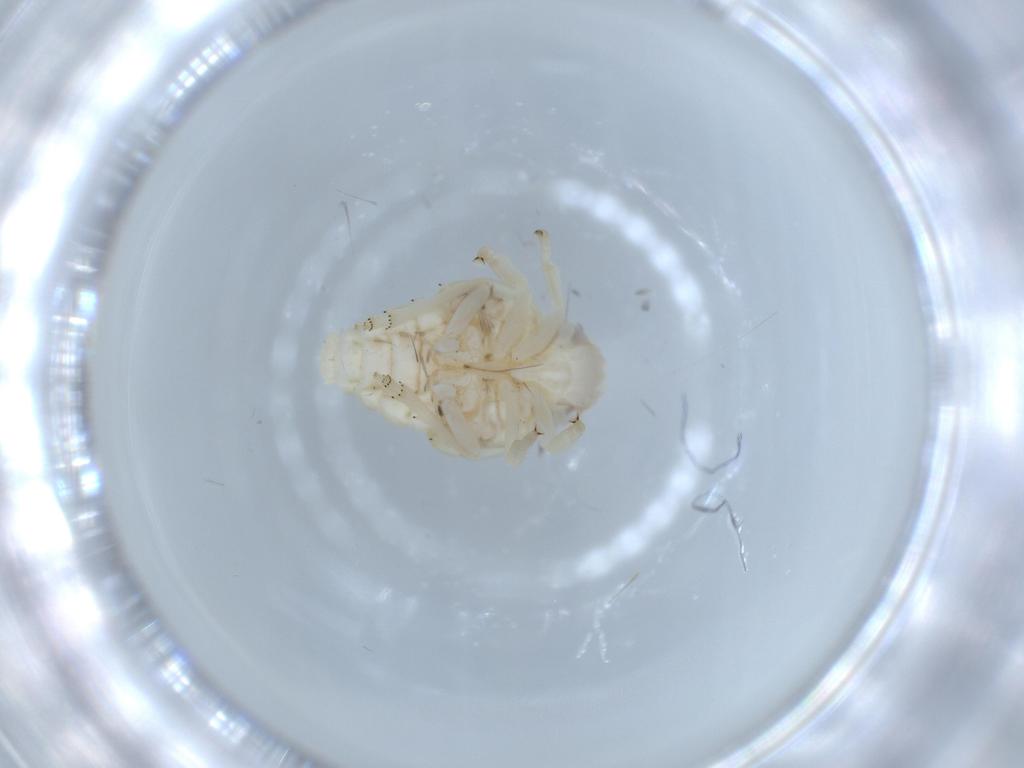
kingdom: Animalia
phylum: Arthropoda
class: Insecta
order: Hemiptera
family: Nogodinidae
